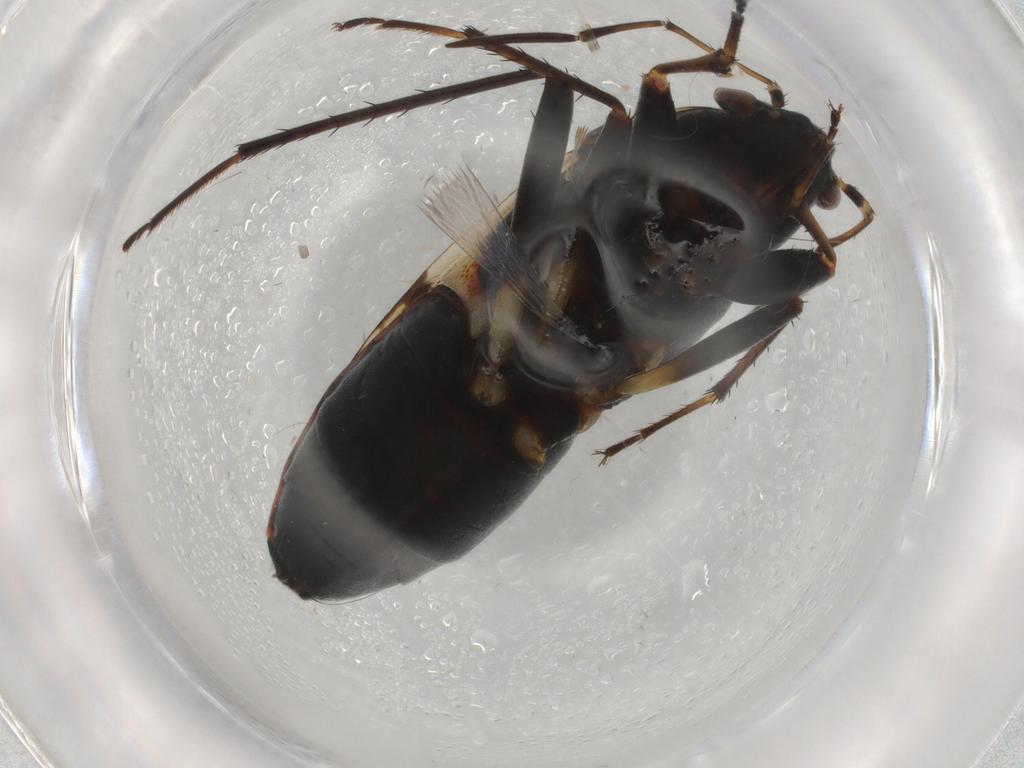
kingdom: Animalia
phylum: Arthropoda
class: Insecta
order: Hemiptera
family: Rhyparochromidae
